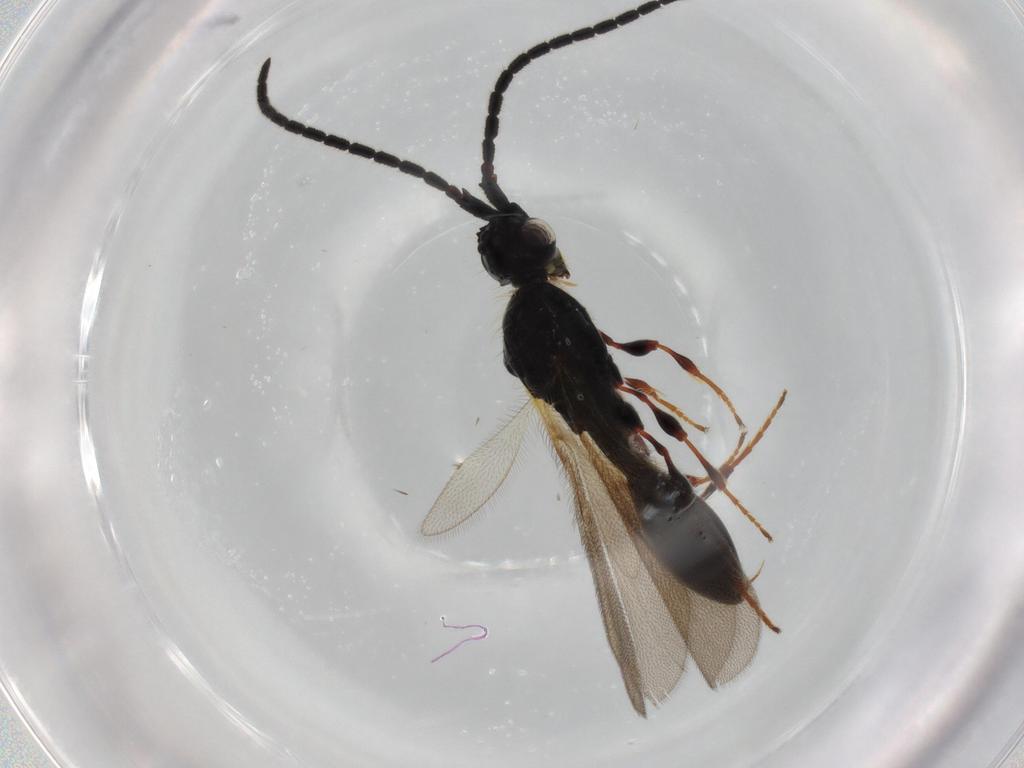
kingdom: Animalia
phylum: Arthropoda
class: Insecta
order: Hymenoptera
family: Diapriidae
